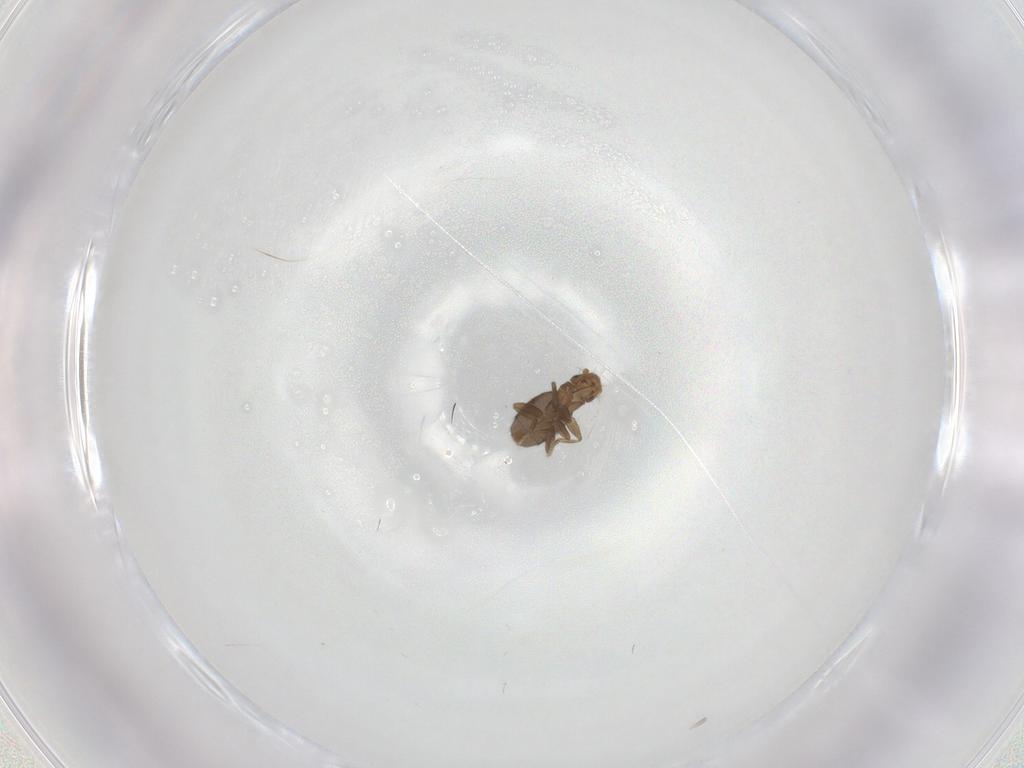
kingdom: Animalia
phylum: Arthropoda
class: Insecta
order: Diptera
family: Phoridae
